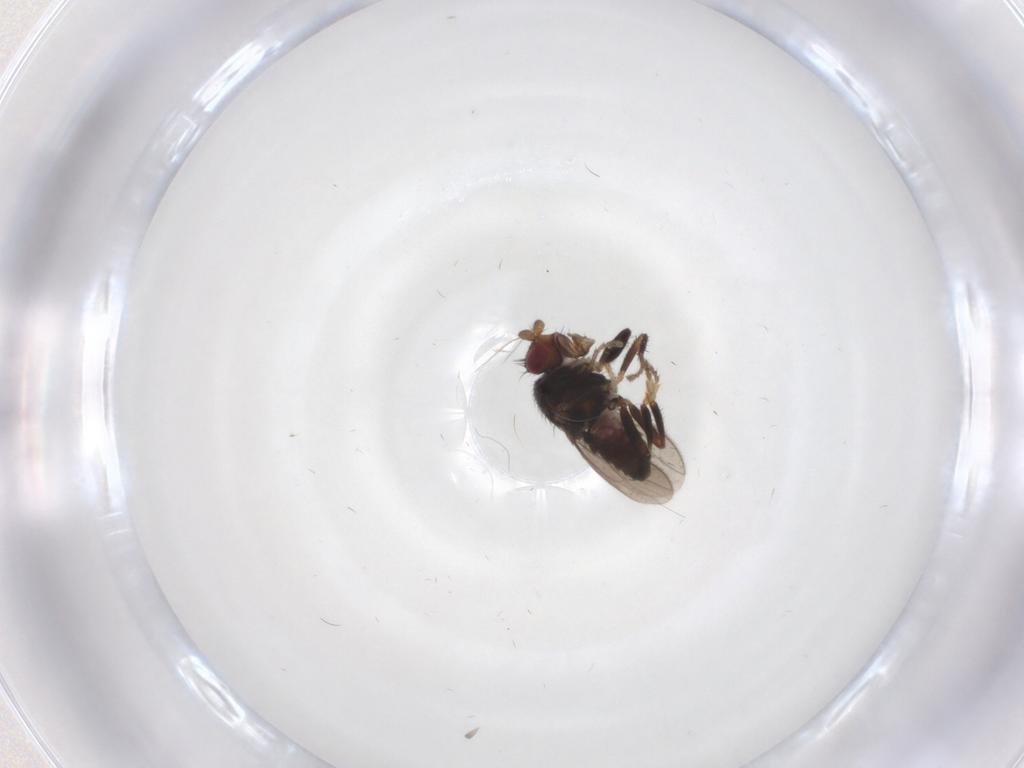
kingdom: Animalia
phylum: Arthropoda
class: Insecta
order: Diptera
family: Sphaeroceridae
